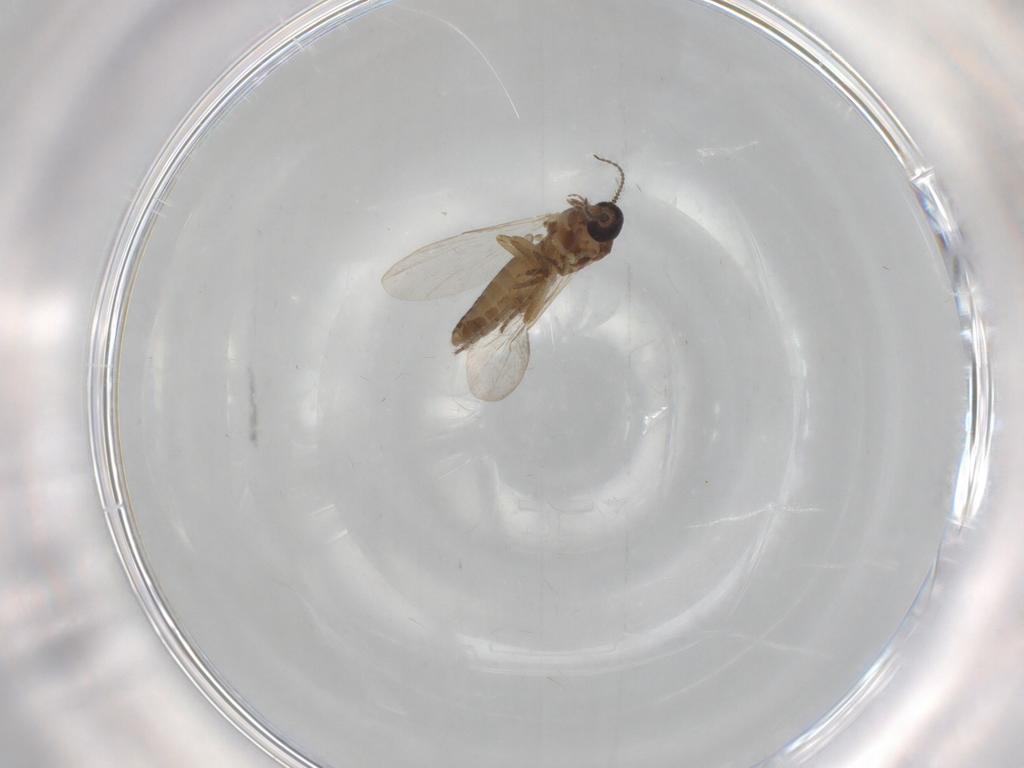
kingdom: Animalia
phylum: Arthropoda
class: Insecta
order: Diptera
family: Ceratopogonidae
